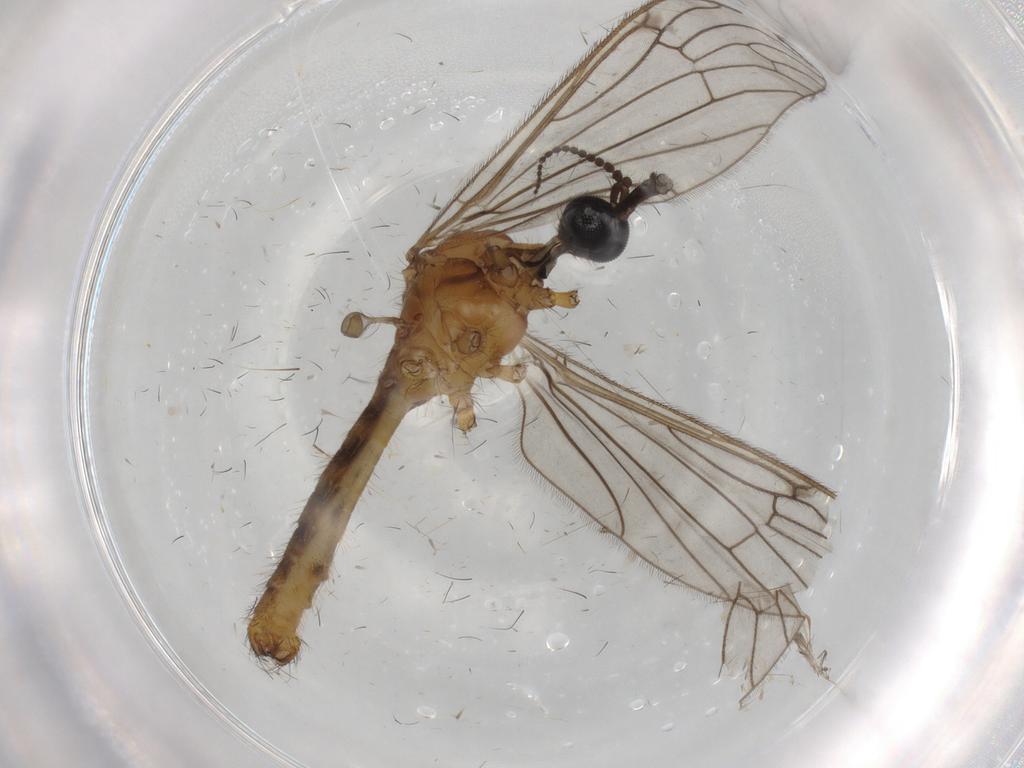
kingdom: Animalia
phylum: Arthropoda
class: Insecta
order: Diptera
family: Limoniidae
